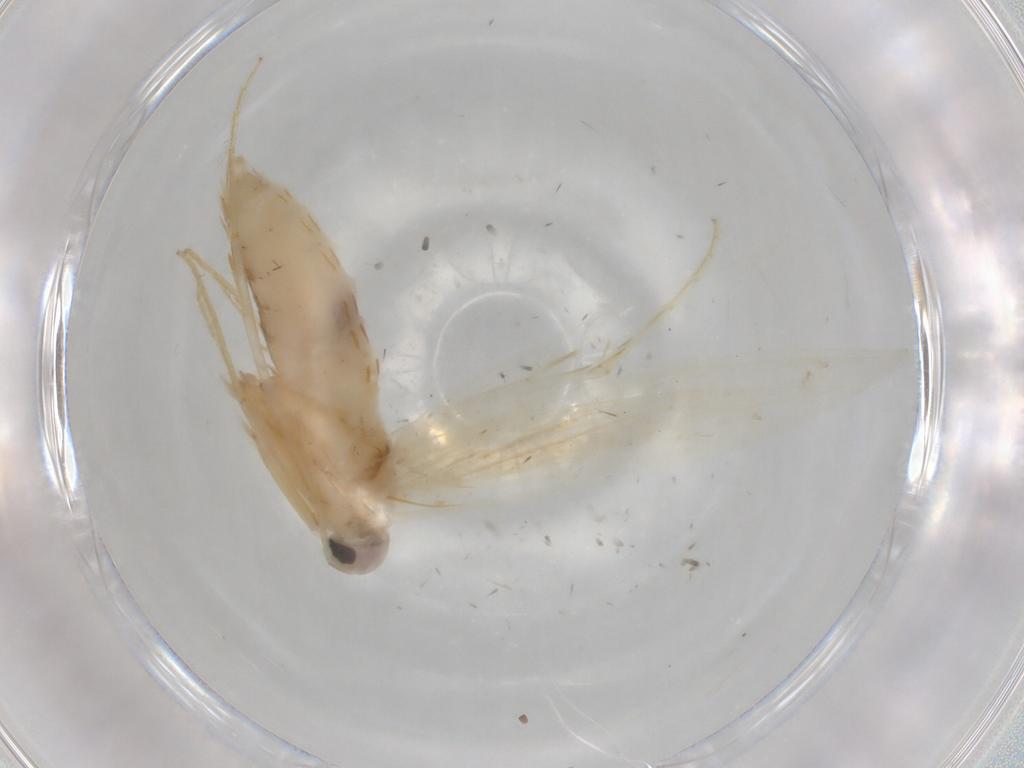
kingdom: Animalia
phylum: Arthropoda
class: Insecta
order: Lepidoptera
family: Xyloryctidae
